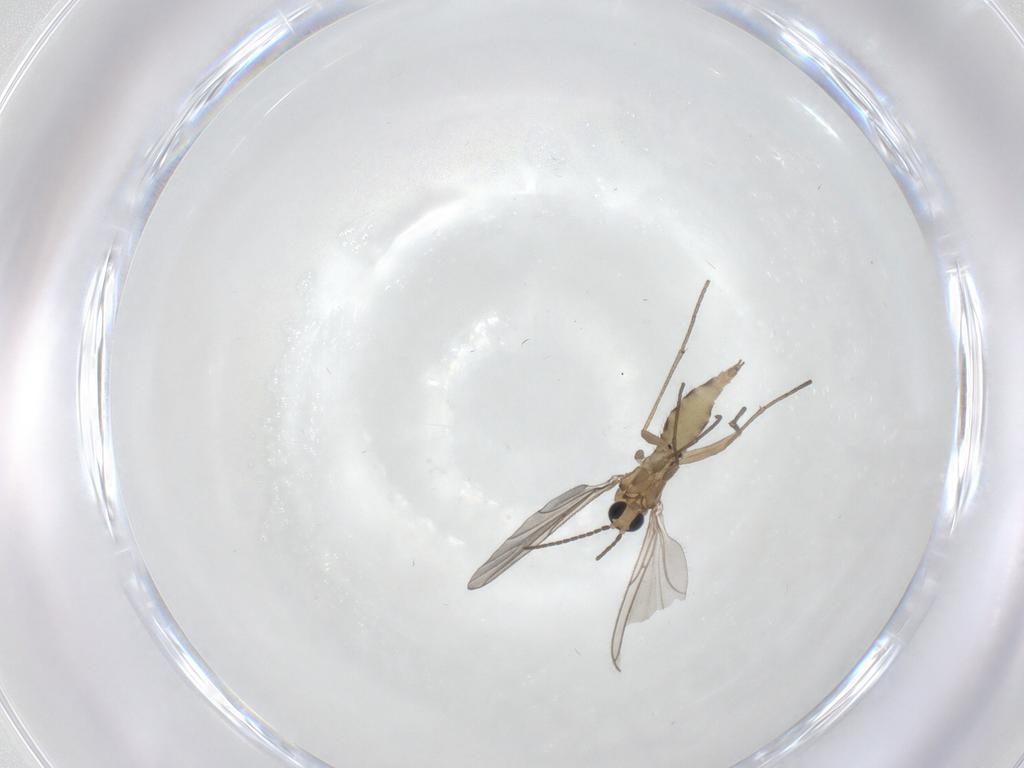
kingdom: Animalia
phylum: Arthropoda
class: Insecta
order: Diptera
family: Sciaridae
